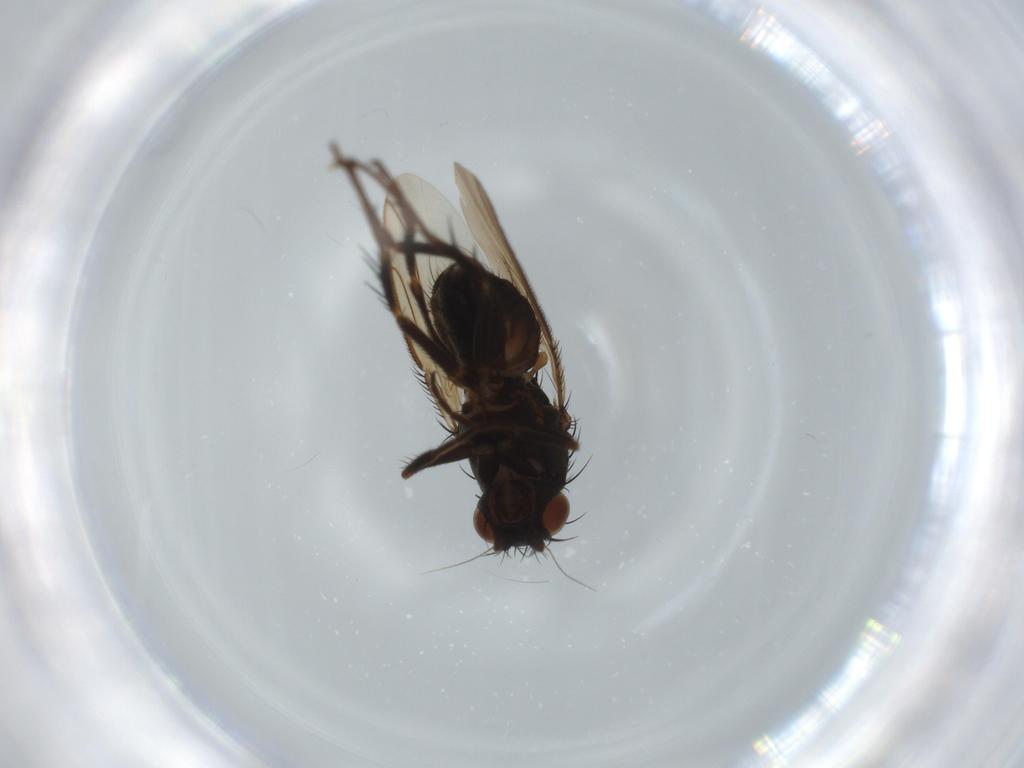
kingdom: Animalia
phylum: Arthropoda
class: Insecta
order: Diptera
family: Sphaeroceridae
